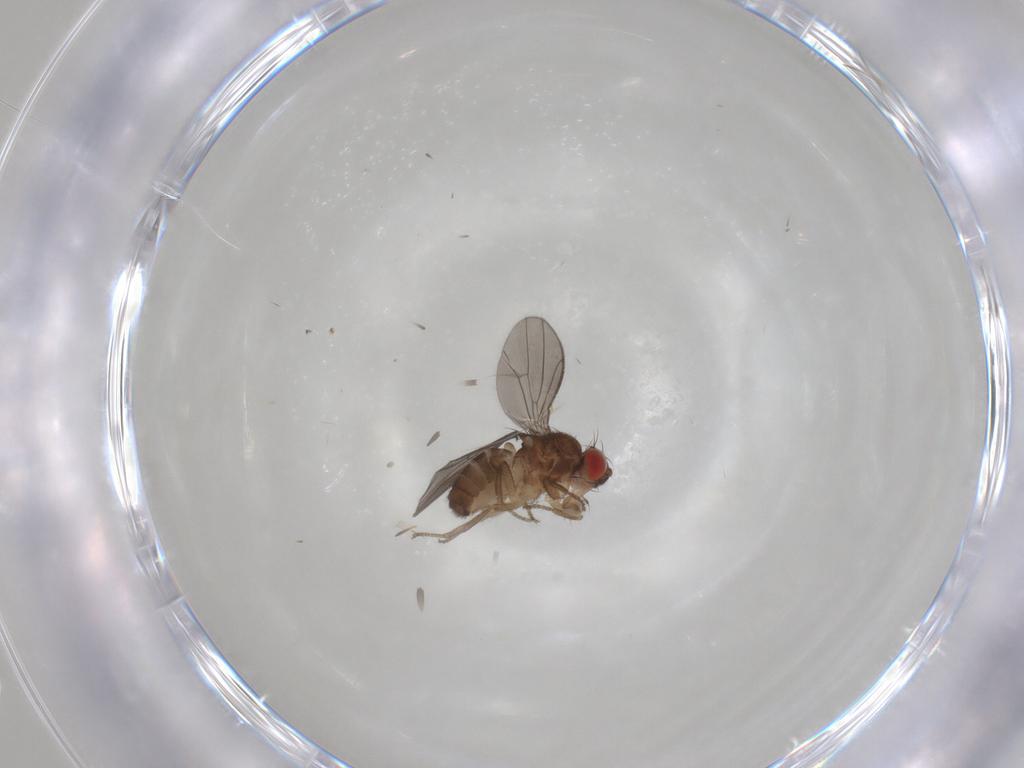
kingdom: Animalia
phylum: Arthropoda
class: Insecta
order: Diptera
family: Drosophilidae
